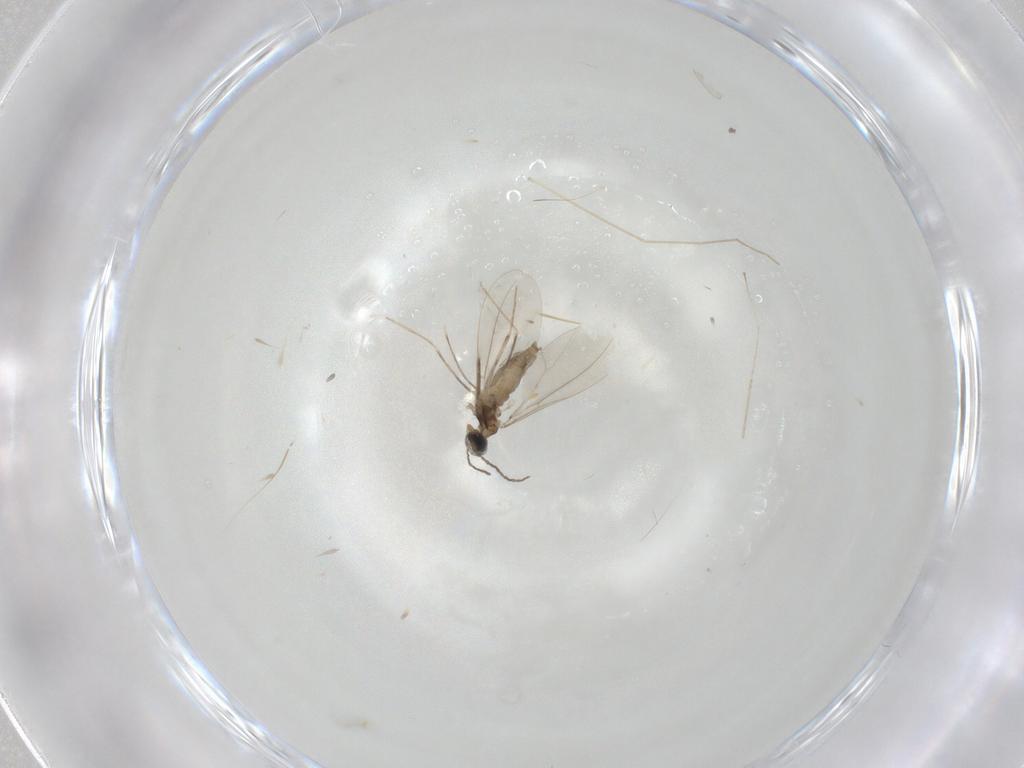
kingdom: Animalia
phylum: Arthropoda
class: Insecta
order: Diptera
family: Cecidomyiidae
